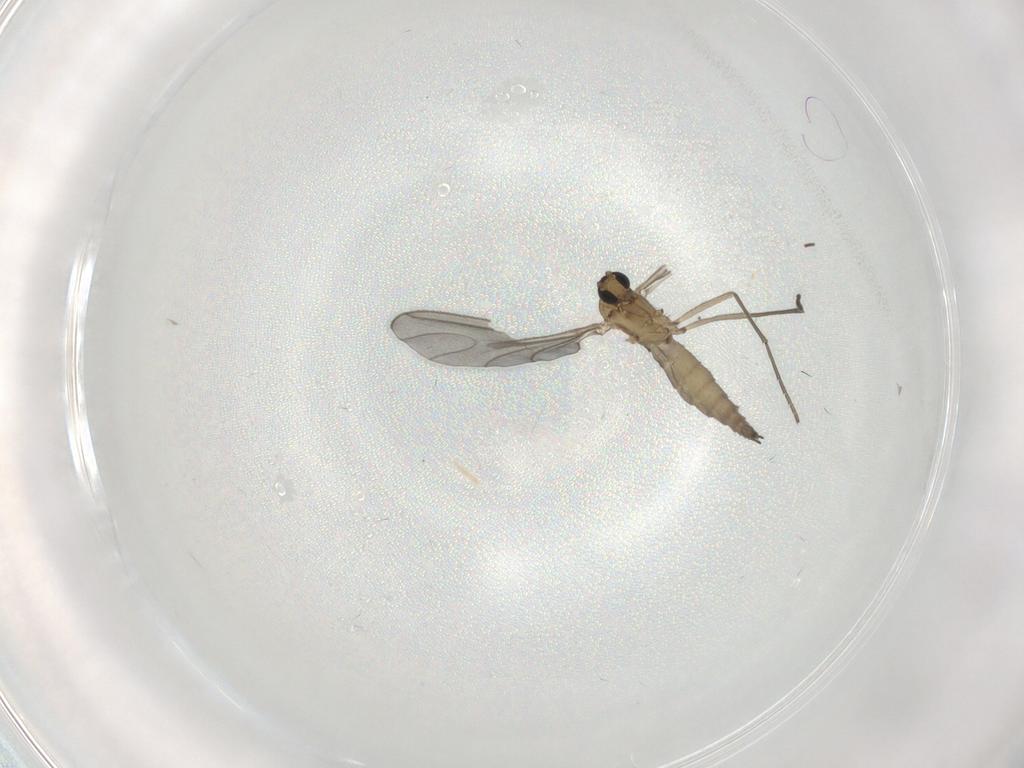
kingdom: Animalia
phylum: Arthropoda
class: Insecta
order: Diptera
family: Sciaridae
